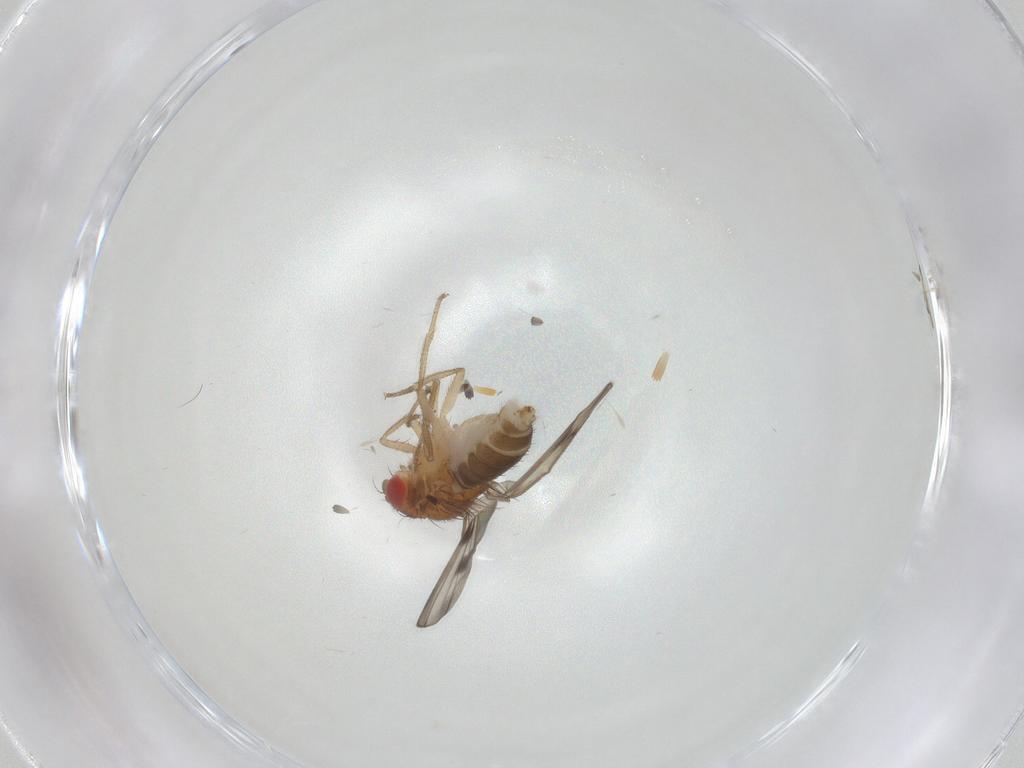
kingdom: Animalia
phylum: Arthropoda
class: Insecta
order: Diptera
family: Drosophilidae
